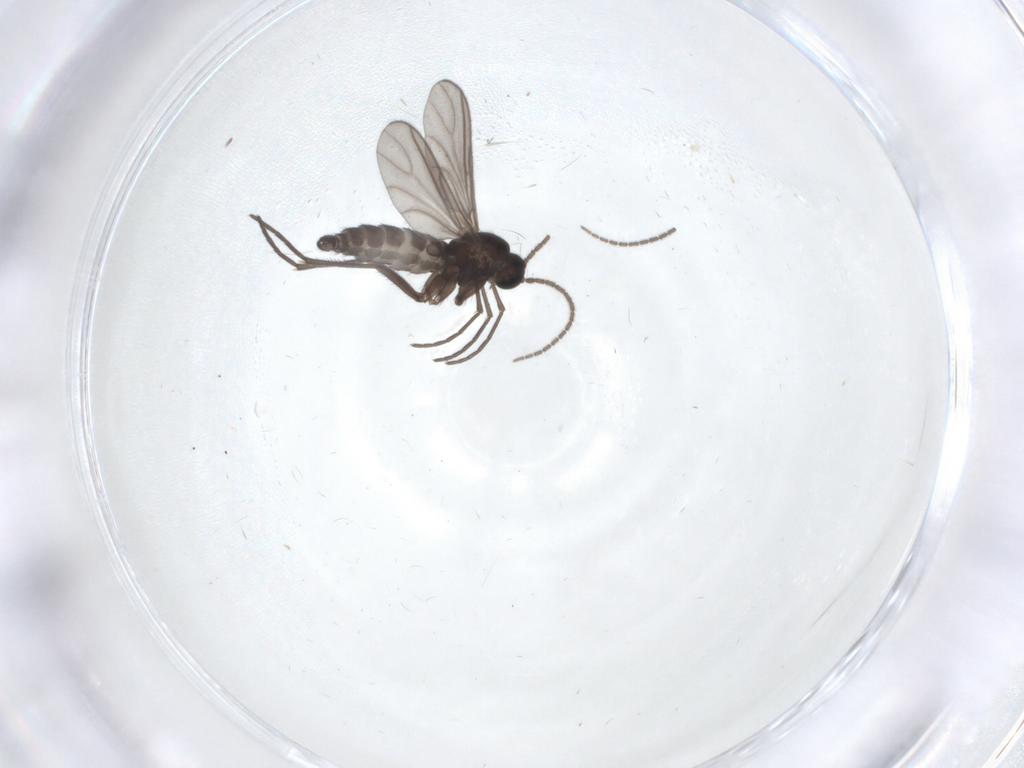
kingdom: Animalia
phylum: Arthropoda
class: Insecta
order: Diptera
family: Sciaridae
